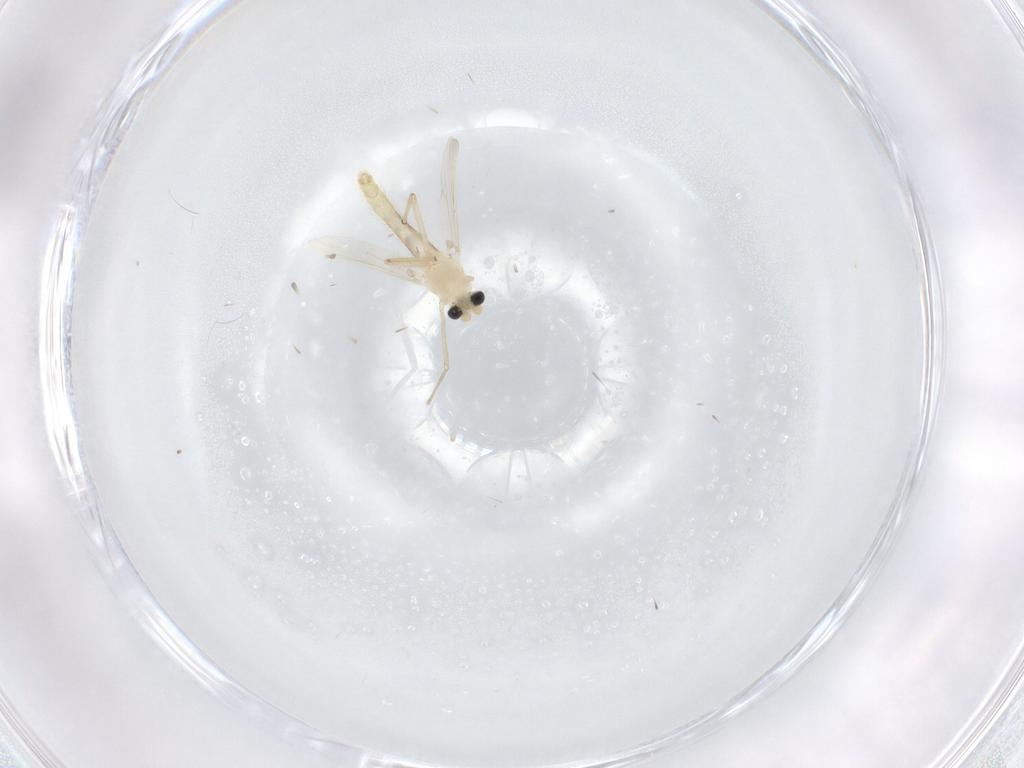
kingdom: Animalia
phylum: Arthropoda
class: Insecta
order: Diptera
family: Chironomidae
